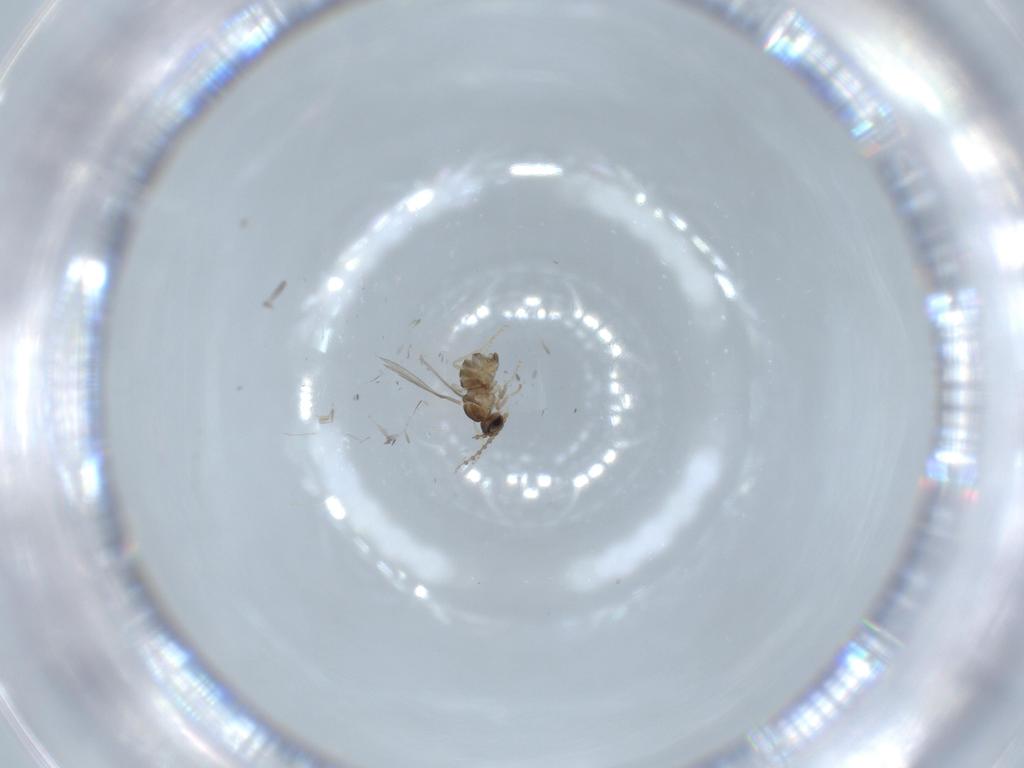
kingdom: Animalia
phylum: Arthropoda
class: Insecta
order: Diptera
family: Cecidomyiidae
